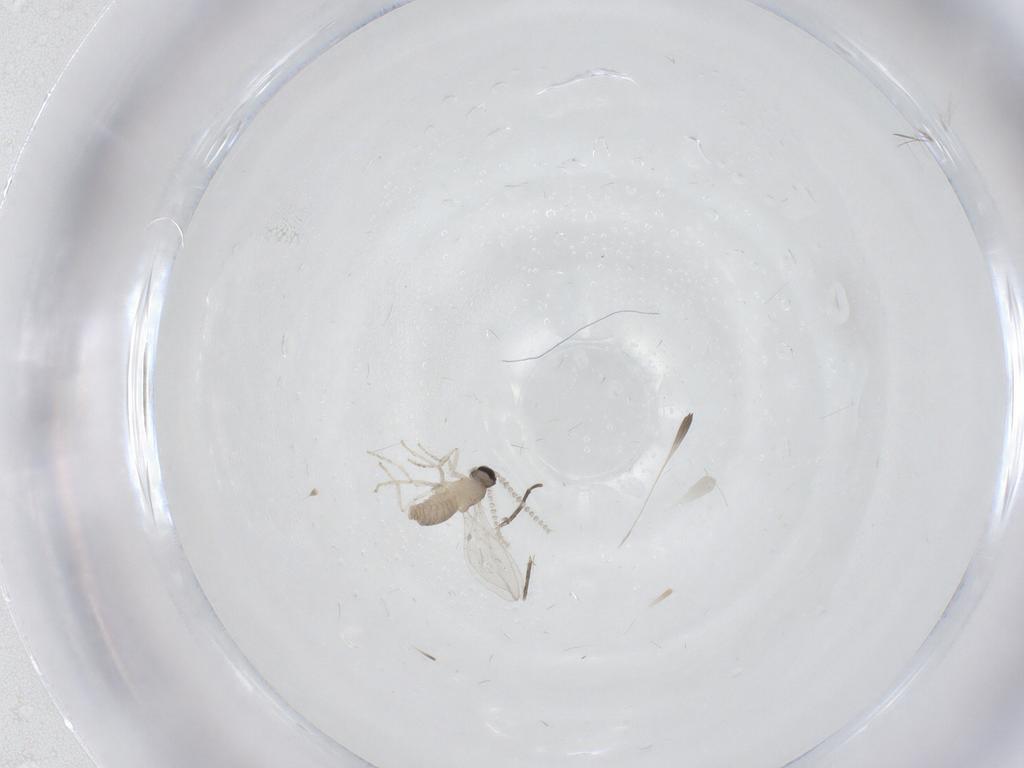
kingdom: Animalia
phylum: Arthropoda
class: Insecta
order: Diptera
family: Cecidomyiidae
